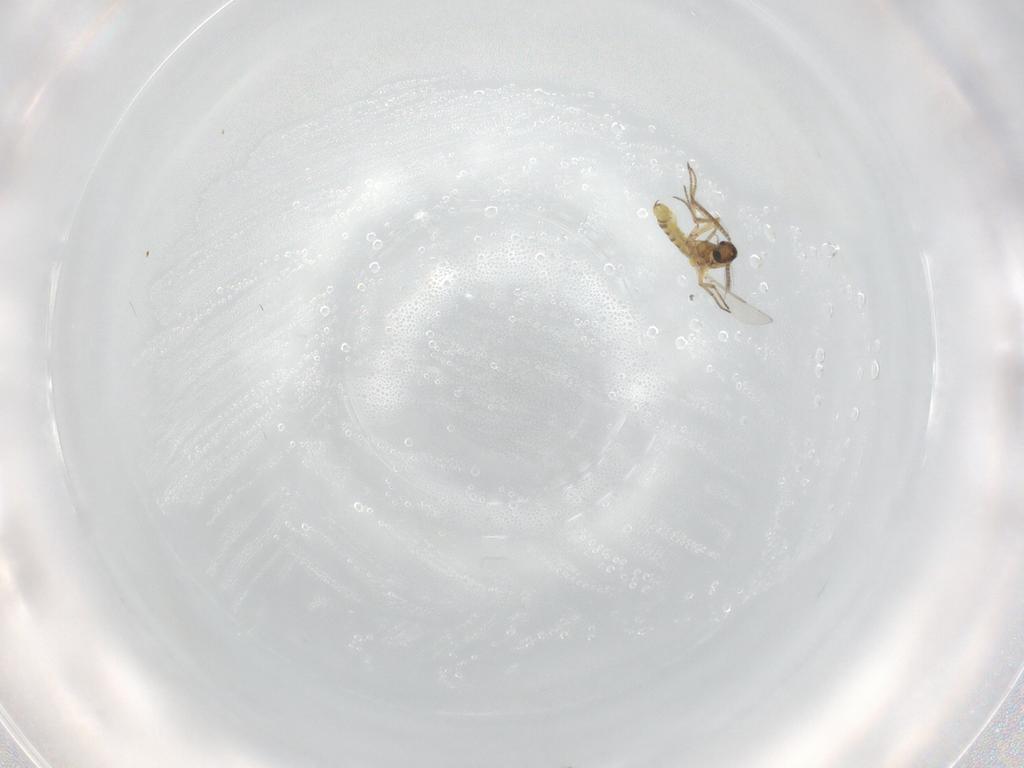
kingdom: Animalia
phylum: Arthropoda
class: Insecta
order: Diptera
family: Ceratopogonidae
